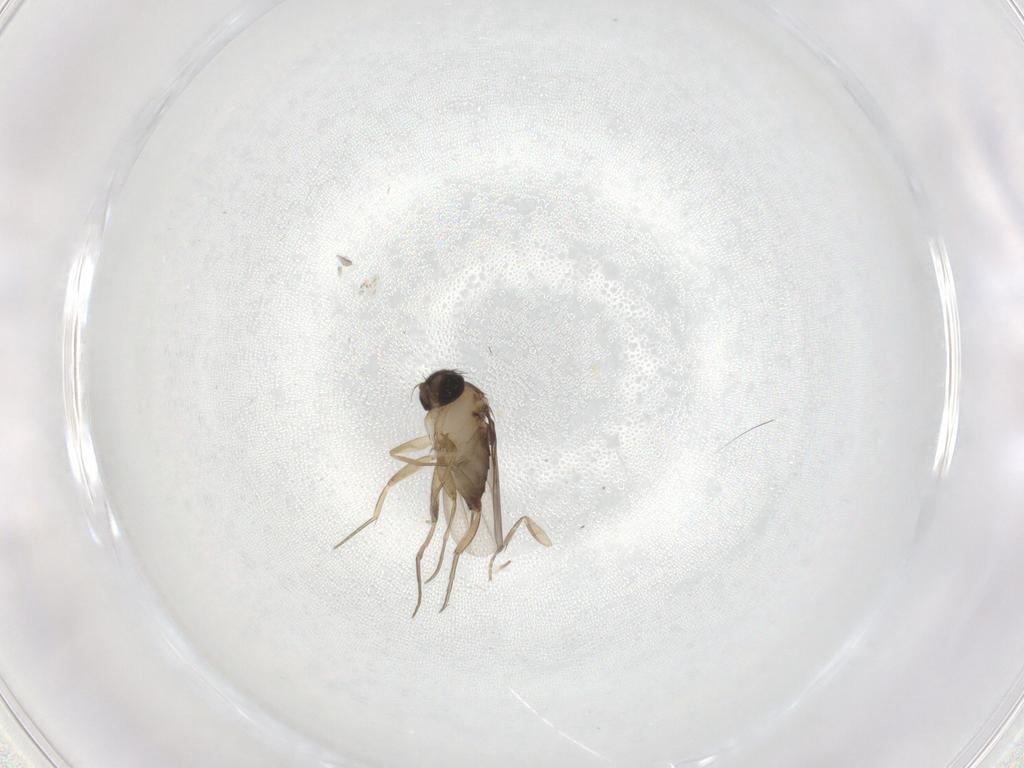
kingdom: Animalia
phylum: Arthropoda
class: Insecta
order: Diptera
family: Phoridae
